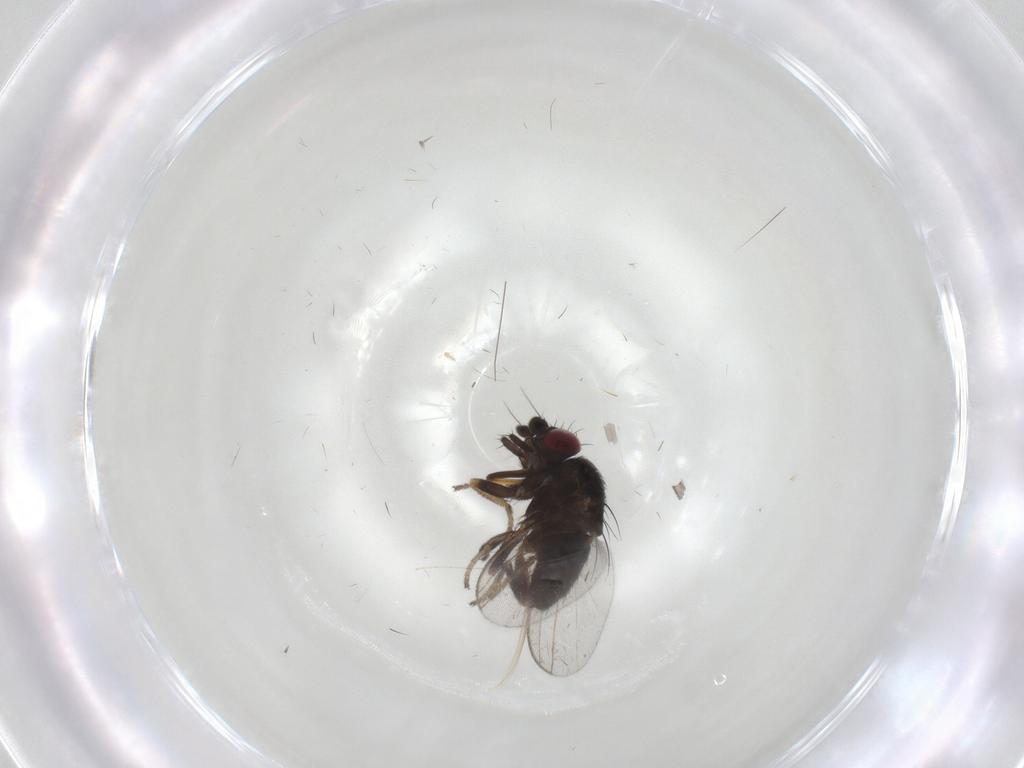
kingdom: Animalia
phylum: Arthropoda
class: Insecta
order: Diptera
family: Milichiidae
